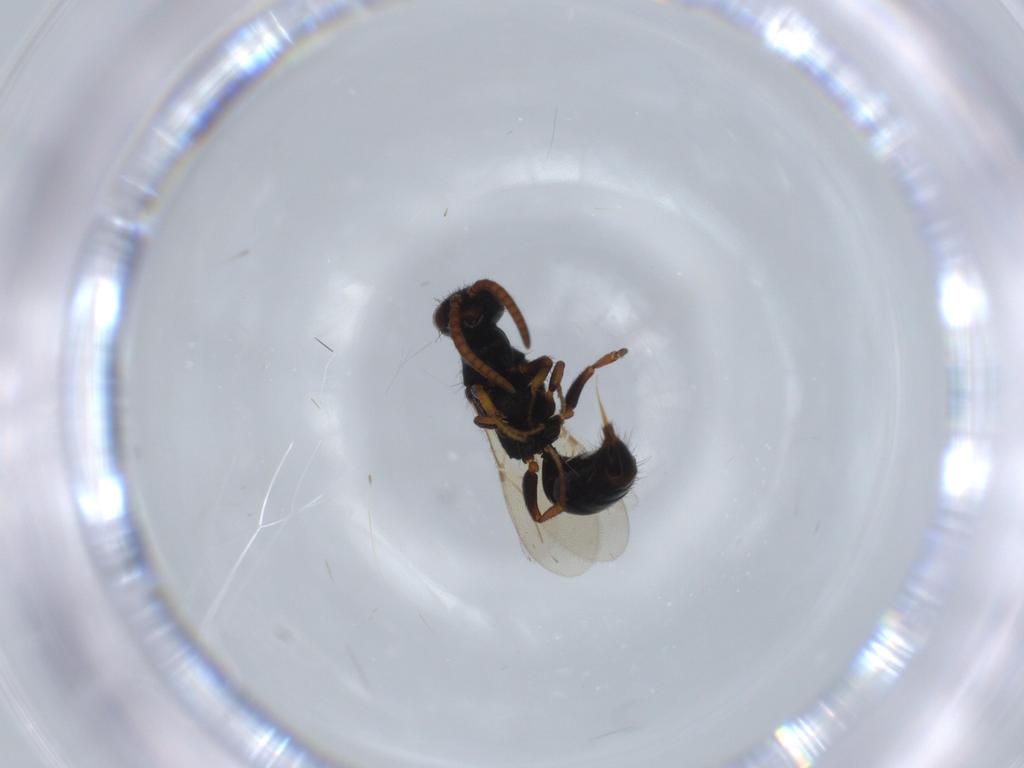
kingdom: Animalia
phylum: Arthropoda
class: Insecta
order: Hymenoptera
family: Bethylidae
